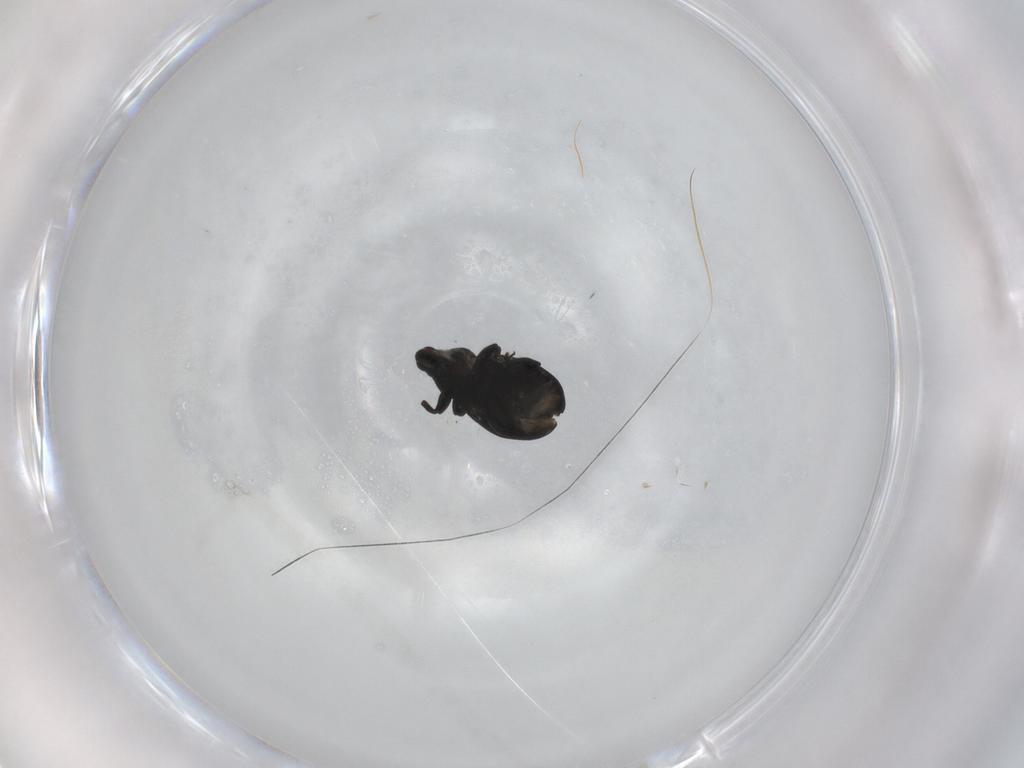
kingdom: Animalia
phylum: Arthropoda
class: Insecta
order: Coleoptera
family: Curculionidae
